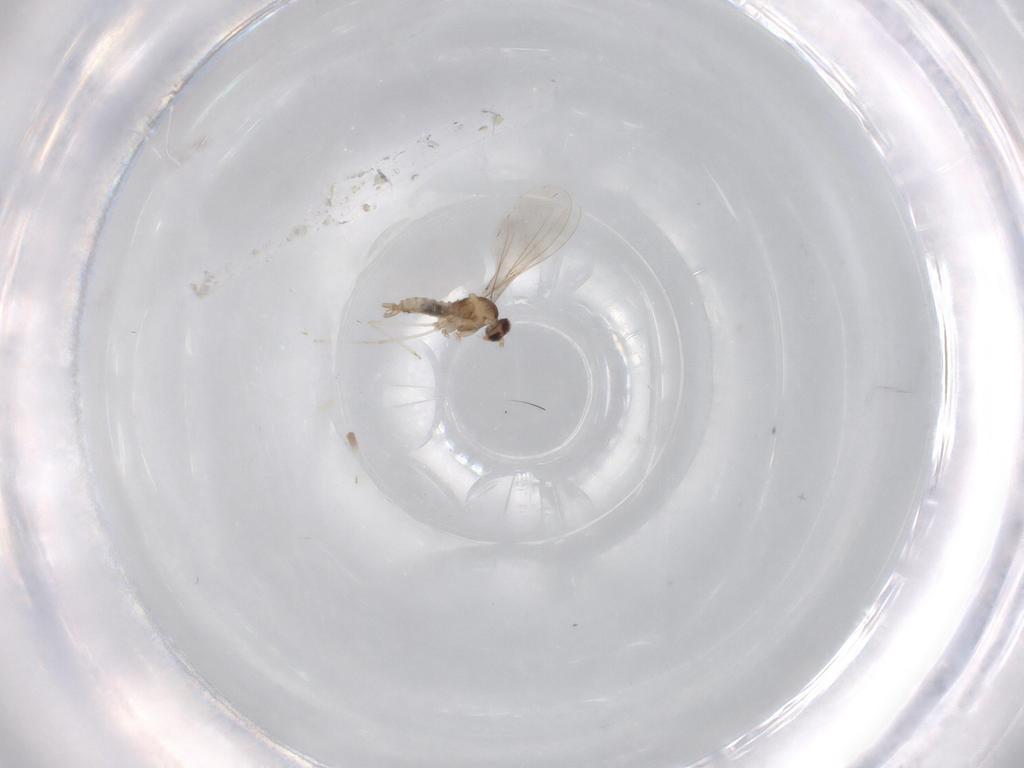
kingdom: Animalia
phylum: Arthropoda
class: Insecta
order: Diptera
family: Cecidomyiidae
